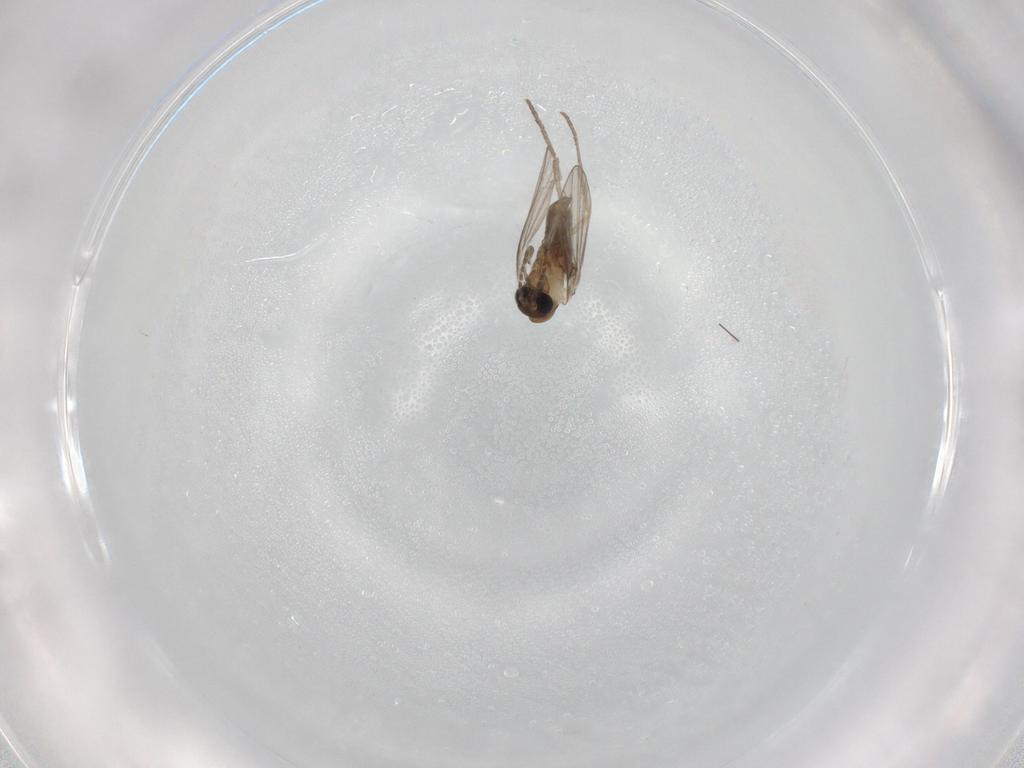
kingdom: Animalia
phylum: Arthropoda
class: Insecta
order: Diptera
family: Psychodidae
